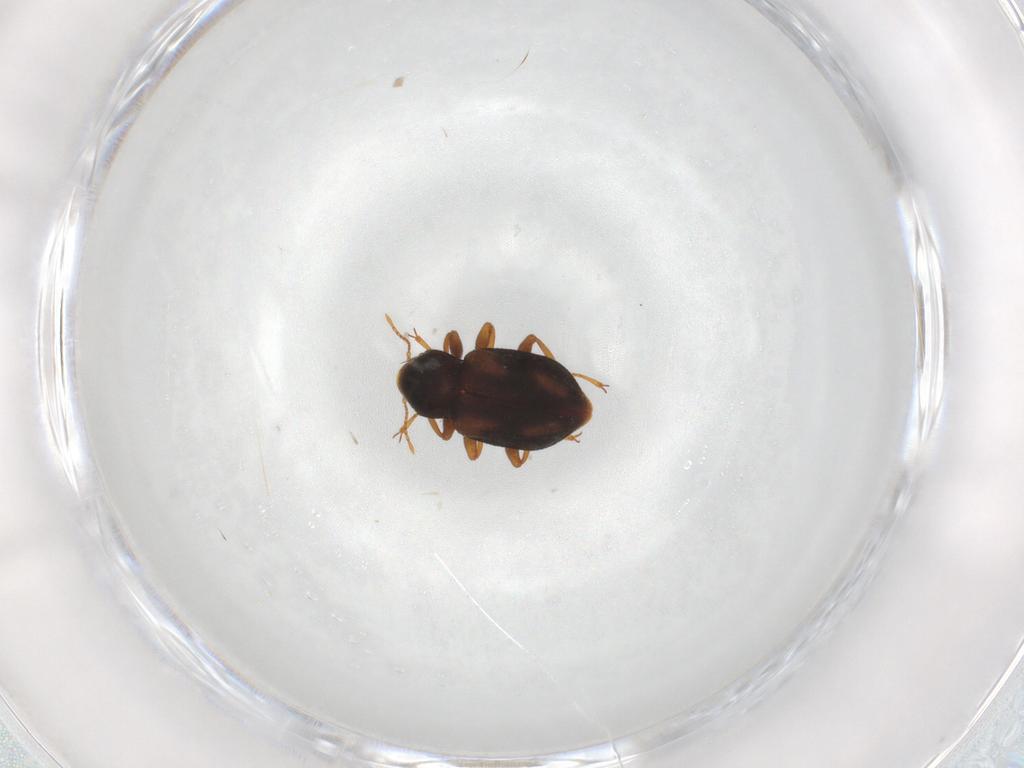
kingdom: Animalia
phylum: Arthropoda
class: Insecta
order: Coleoptera
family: Elmidae
